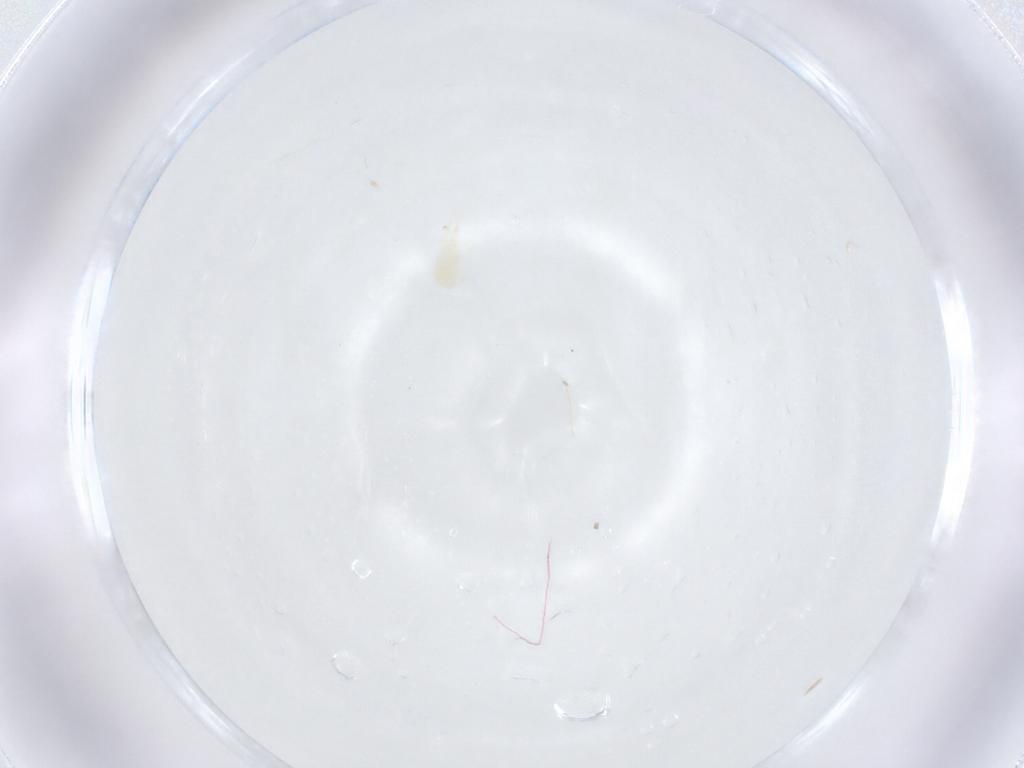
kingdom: Animalia
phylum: Arthropoda
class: Arachnida
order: Mesostigmata
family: Phytoseiidae
